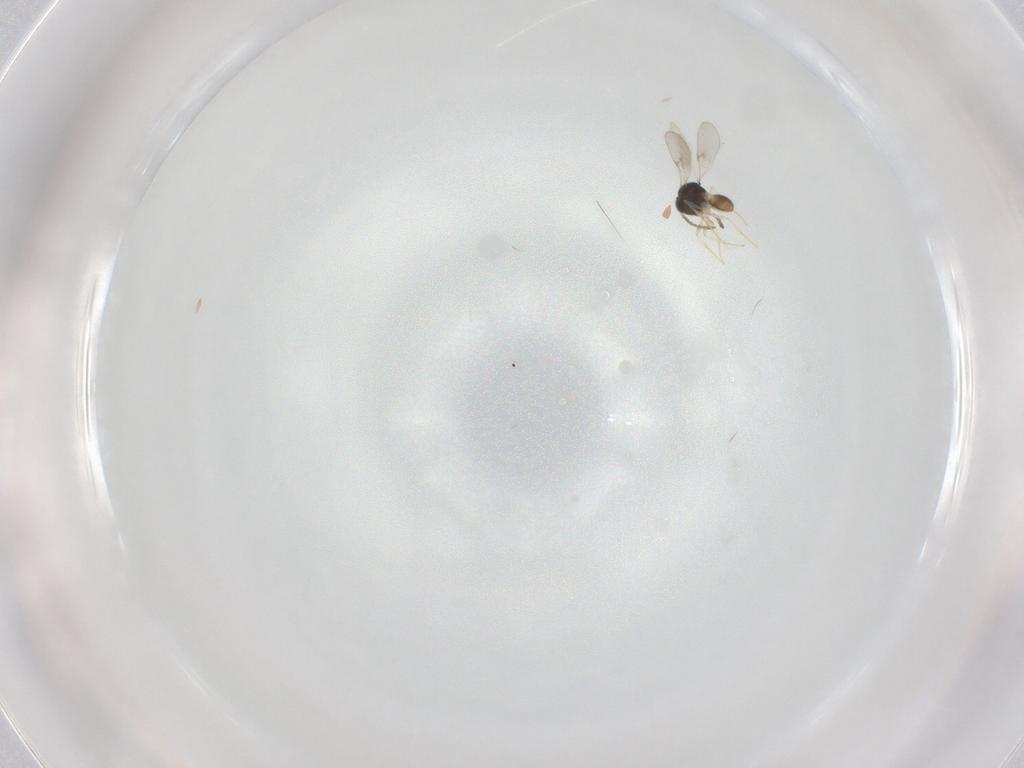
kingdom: Animalia
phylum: Arthropoda
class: Insecta
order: Hymenoptera
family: Scelionidae
